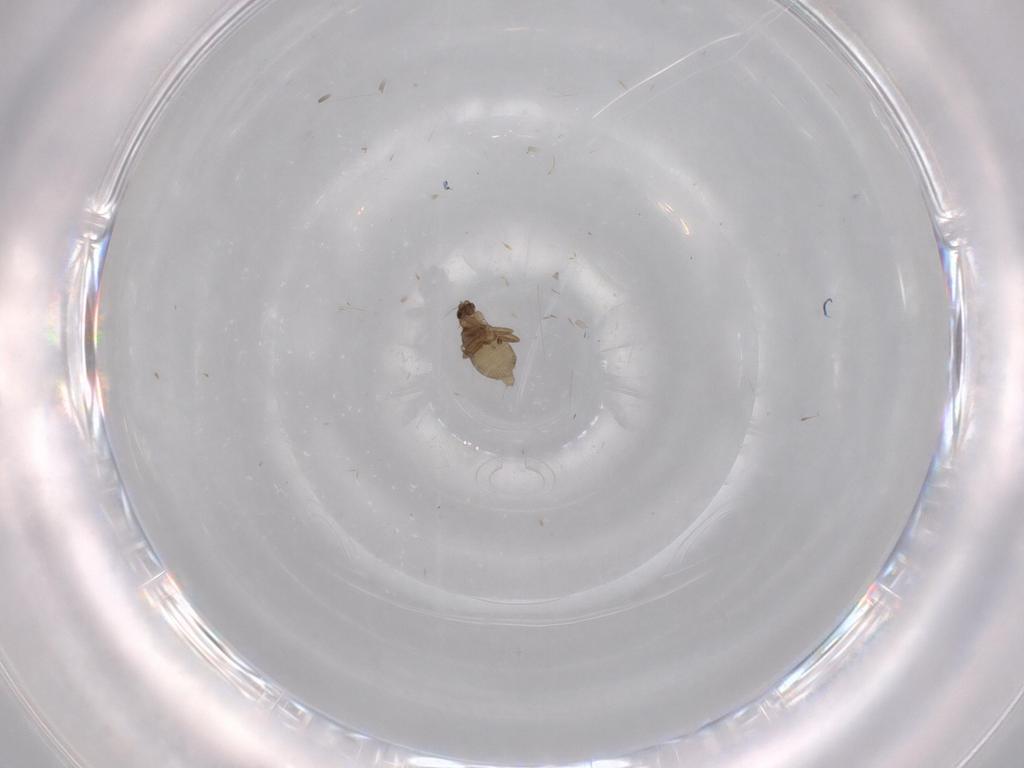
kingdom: Animalia
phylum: Arthropoda
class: Insecta
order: Diptera
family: Phoridae
